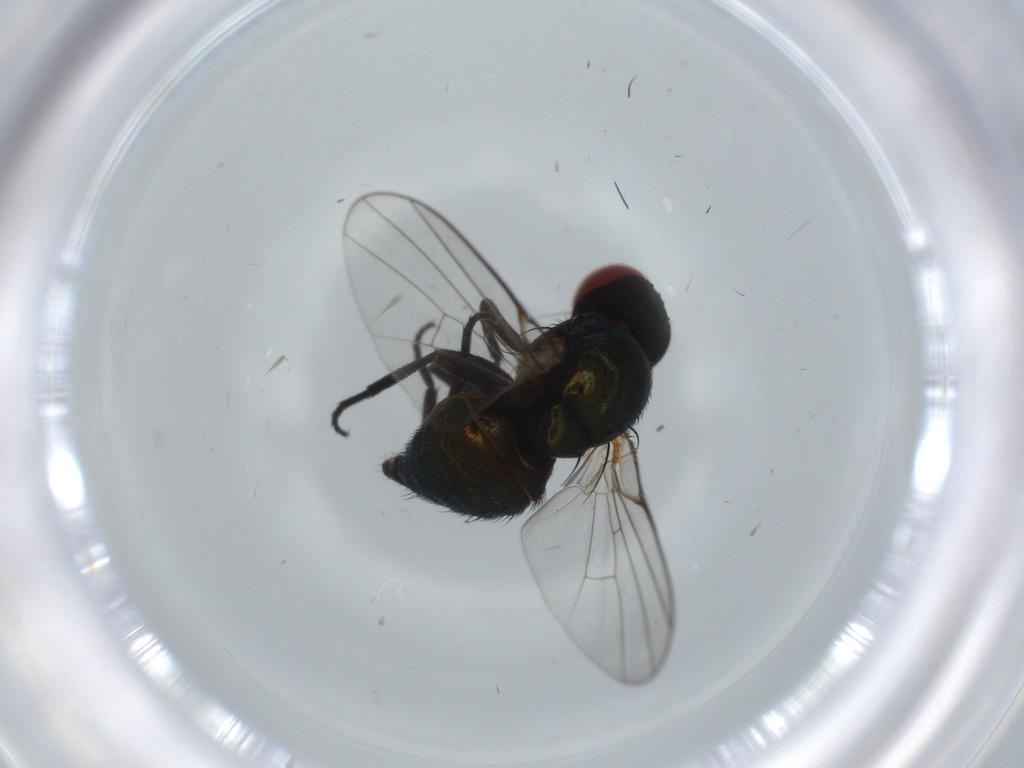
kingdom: Animalia
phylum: Arthropoda
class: Insecta
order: Diptera
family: Agromyzidae
